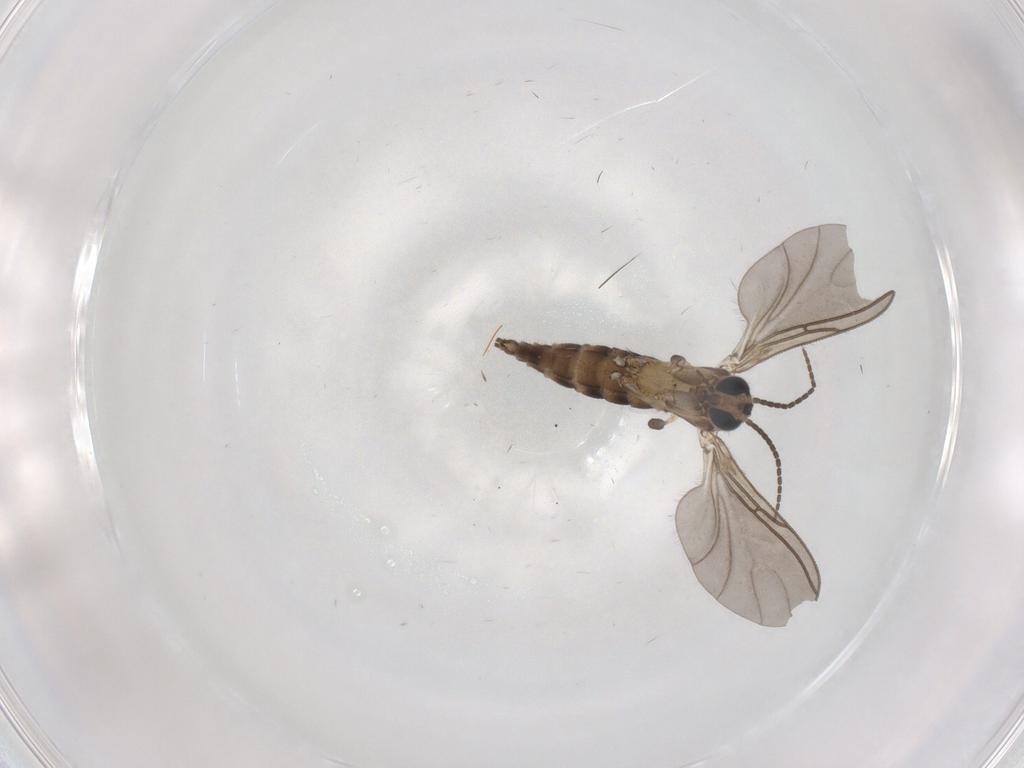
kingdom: Animalia
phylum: Arthropoda
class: Insecta
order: Diptera
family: Sciaridae
